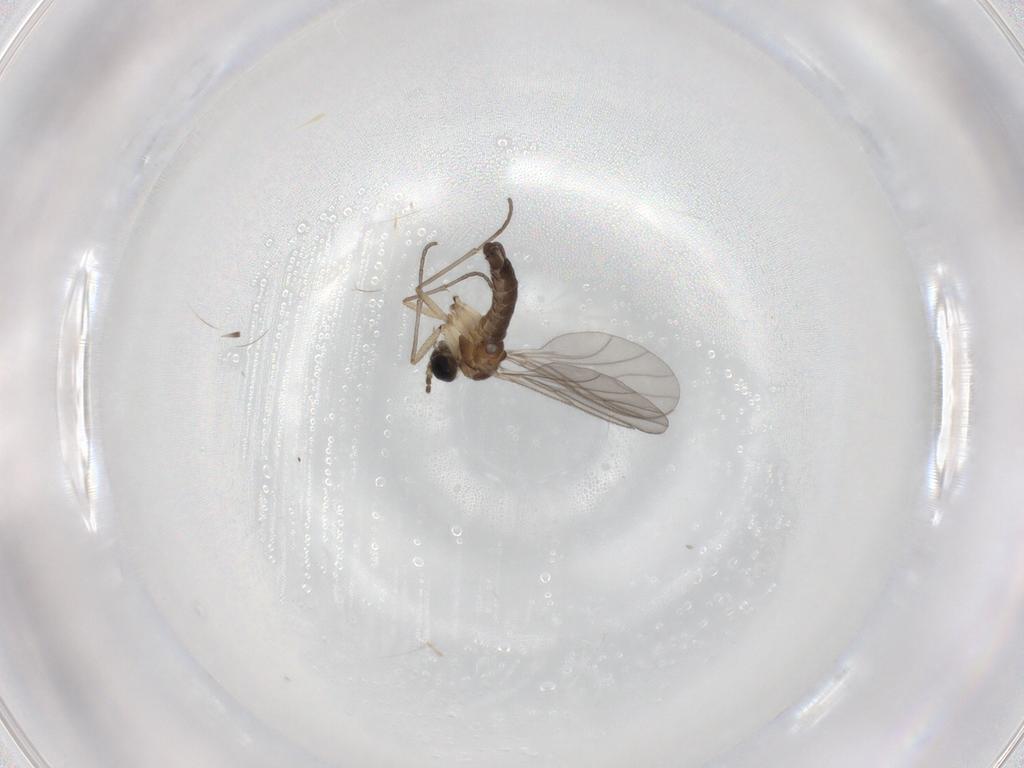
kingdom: Animalia
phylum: Arthropoda
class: Insecta
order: Diptera
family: Sciaridae
